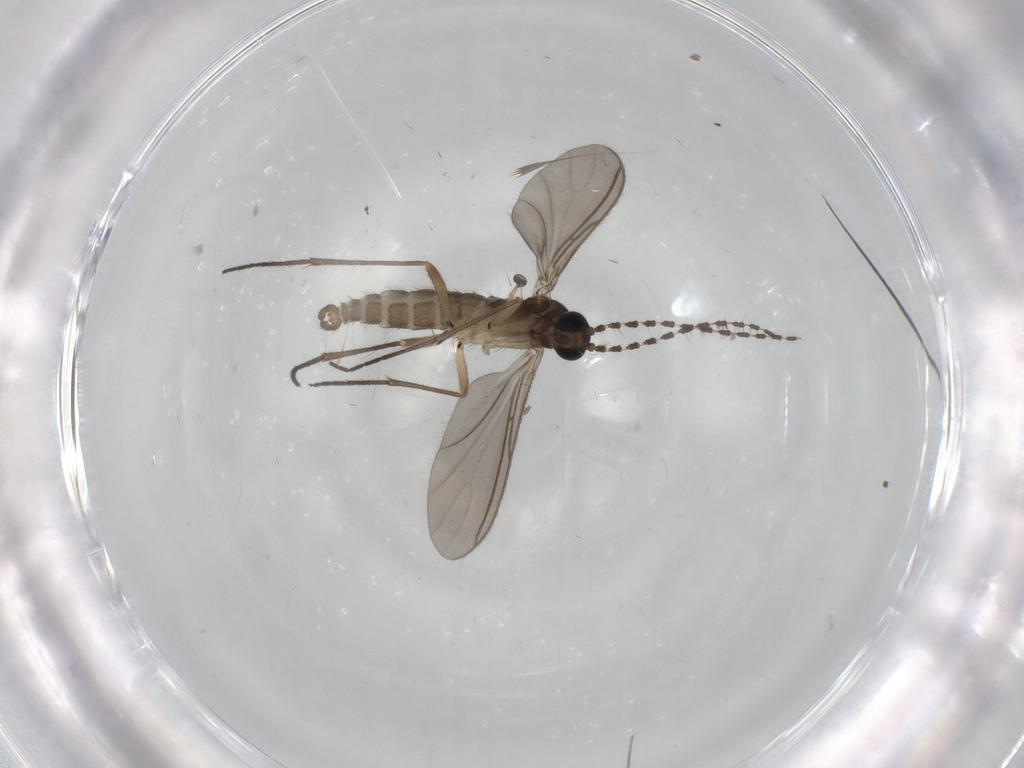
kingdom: Animalia
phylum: Arthropoda
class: Insecta
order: Diptera
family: Sciaridae
